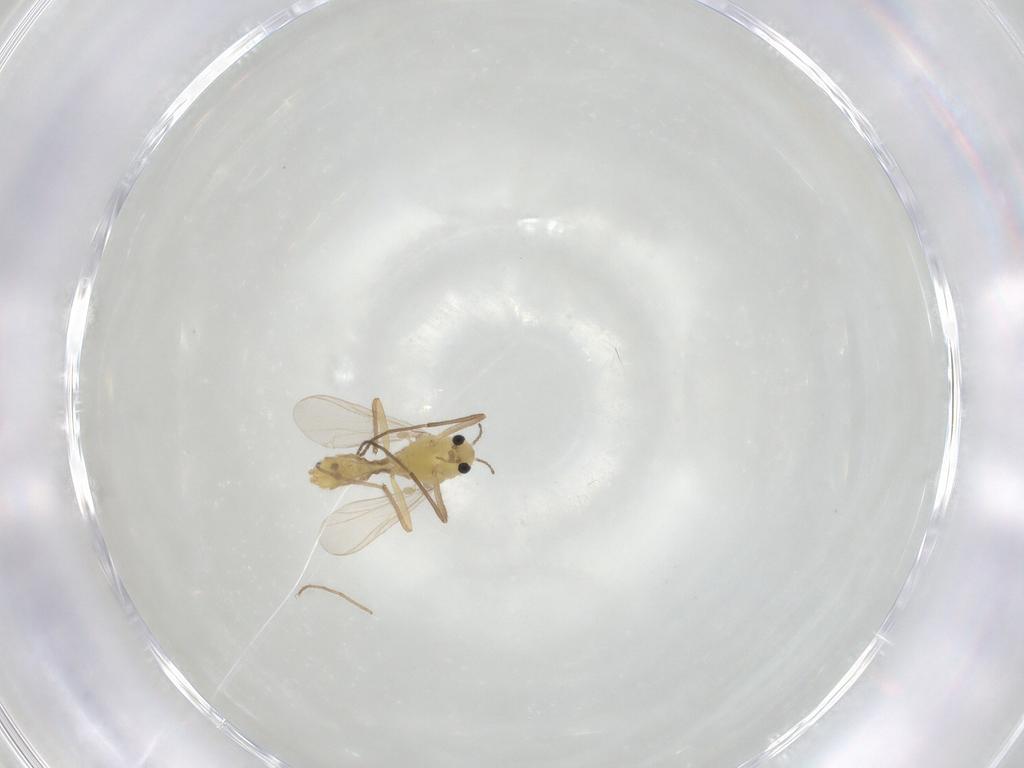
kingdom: Animalia
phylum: Arthropoda
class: Insecta
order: Diptera
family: Chironomidae
